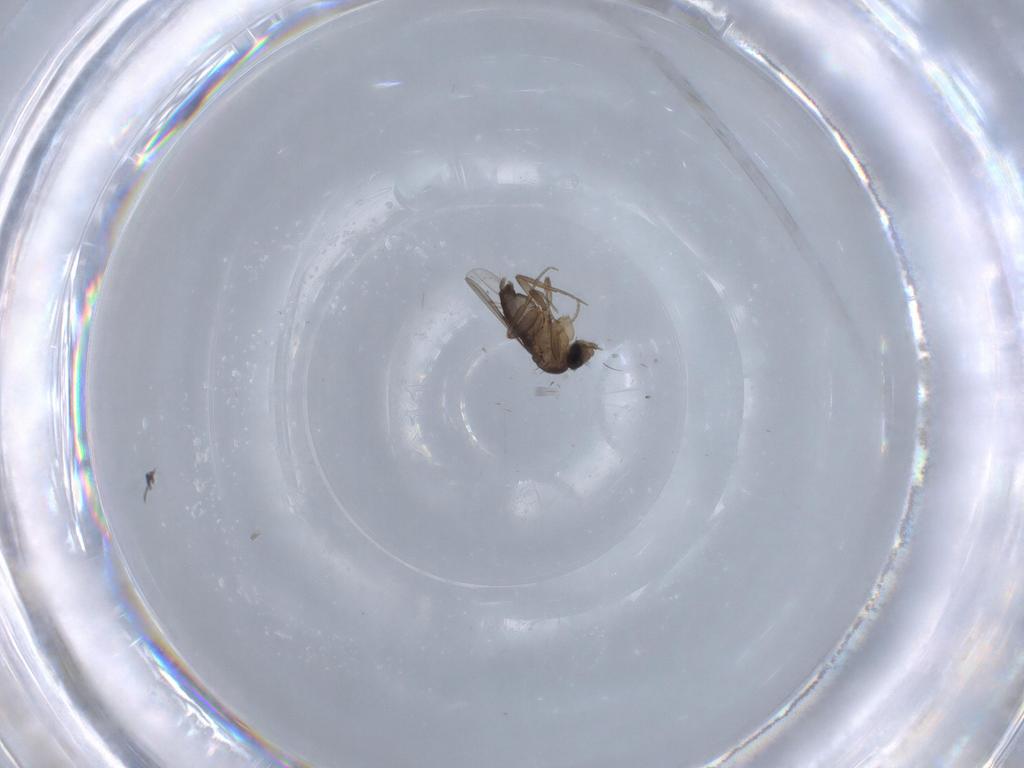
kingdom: Animalia
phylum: Arthropoda
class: Insecta
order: Diptera
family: Phoridae
